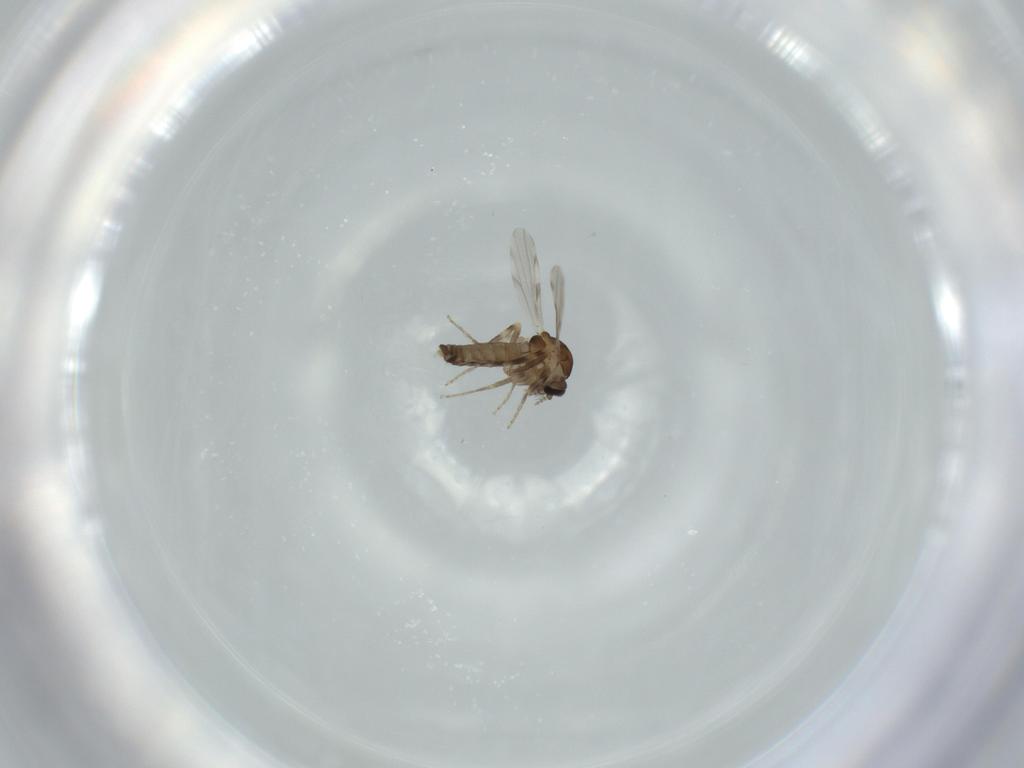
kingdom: Animalia
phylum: Arthropoda
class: Insecta
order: Diptera
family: Ceratopogonidae
